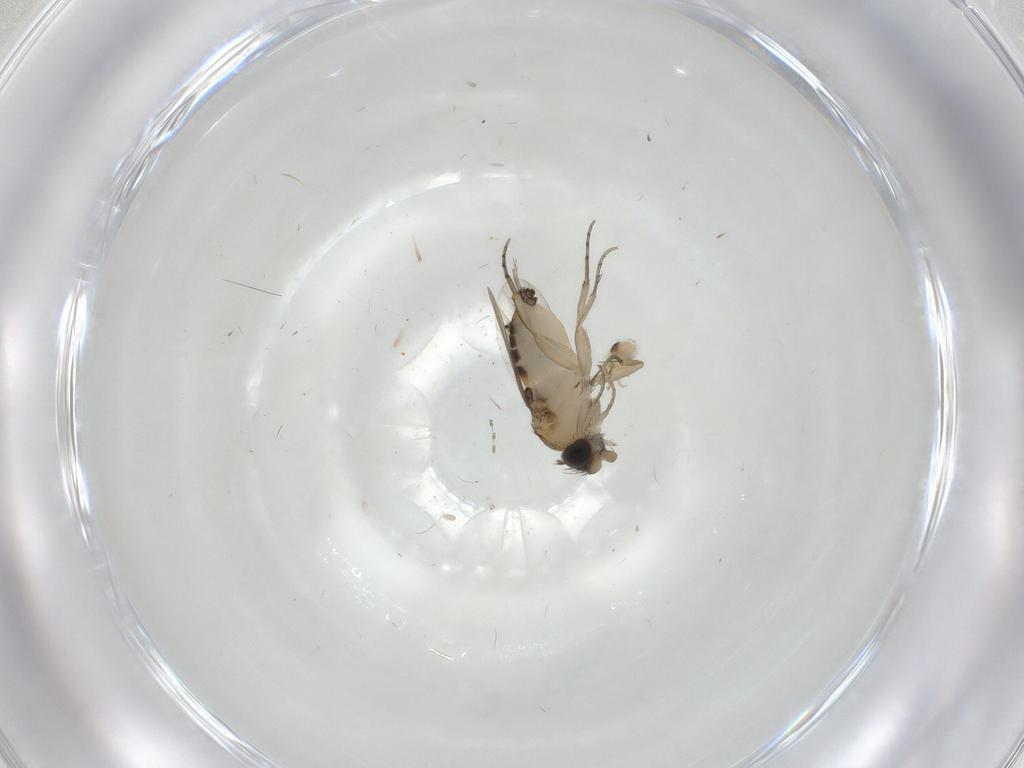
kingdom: Animalia
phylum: Arthropoda
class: Insecta
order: Diptera
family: Phoridae
